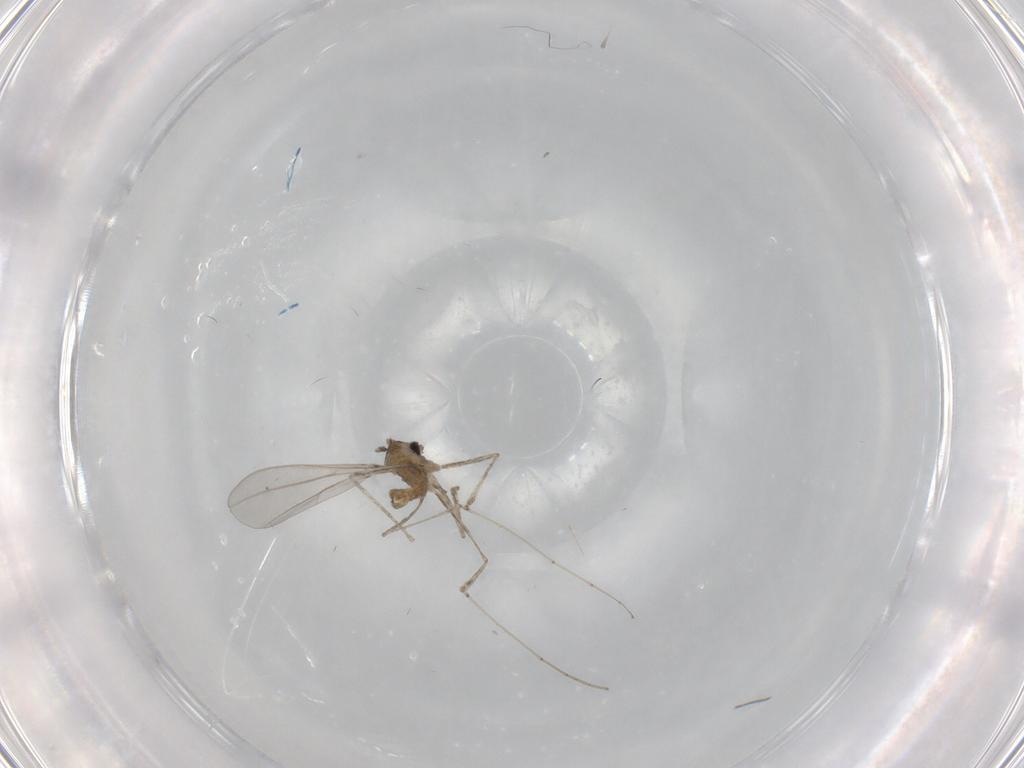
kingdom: Animalia
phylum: Arthropoda
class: Insecta
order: Diptera
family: Cecidomyiidae
